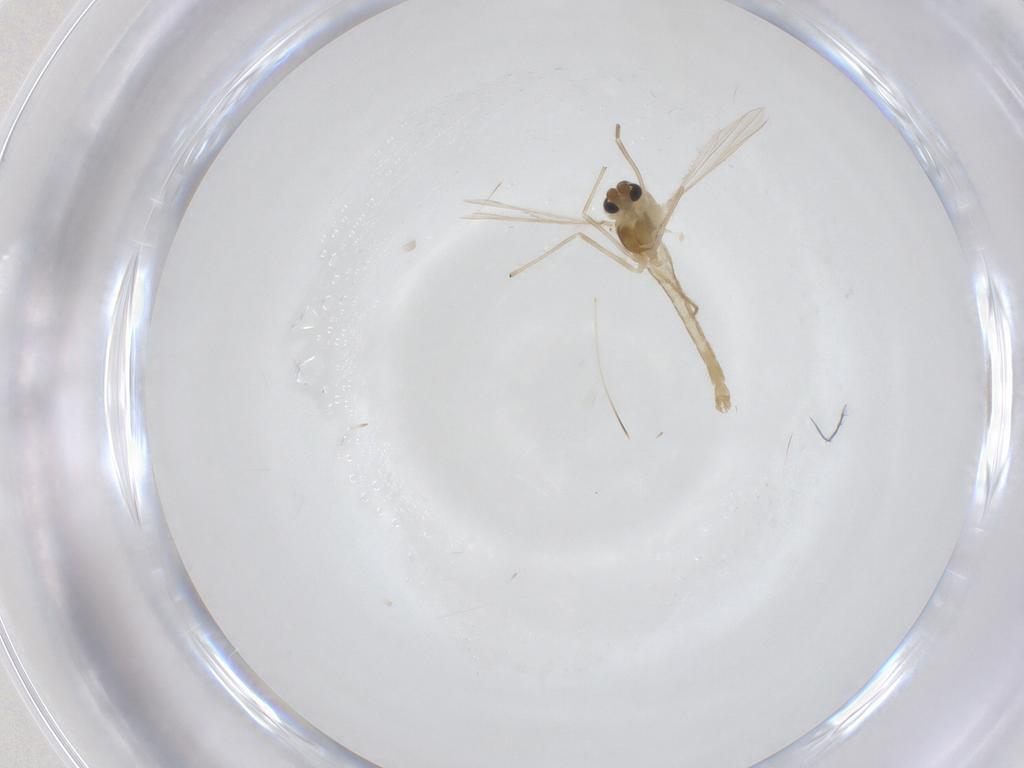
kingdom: Animalia
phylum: Arthropoda
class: Insecta
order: Diptera
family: Chironomidae
